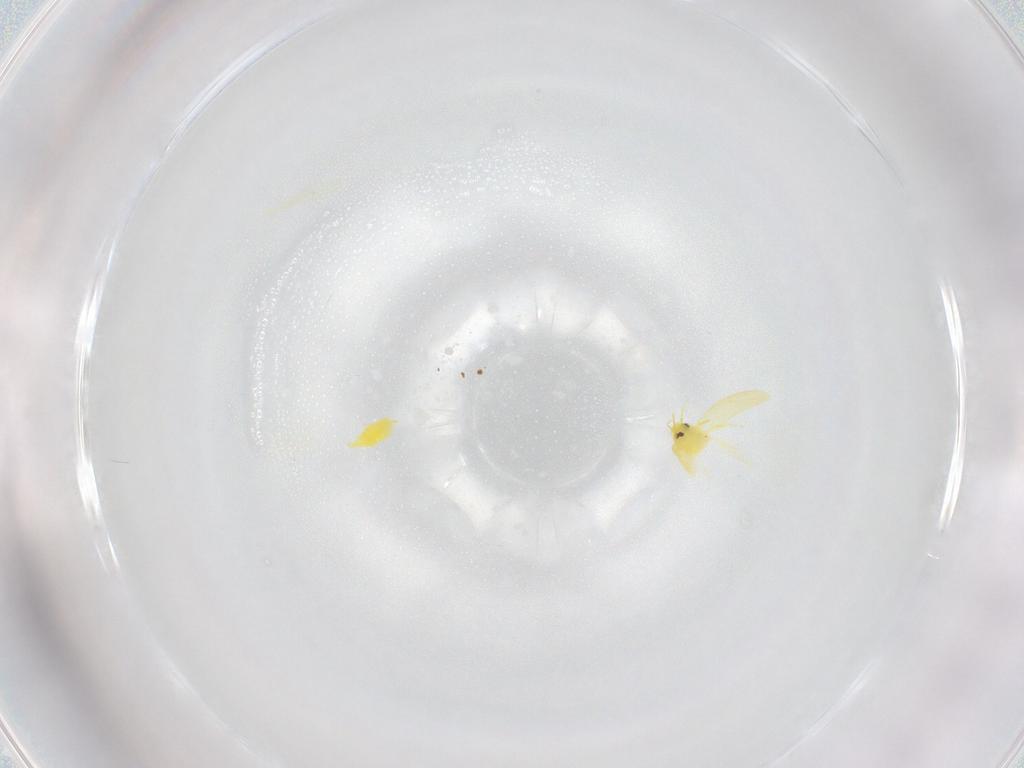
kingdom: Animalia
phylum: Arthropoda
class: Insecta
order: Hemiptera
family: Aleyrodidae
